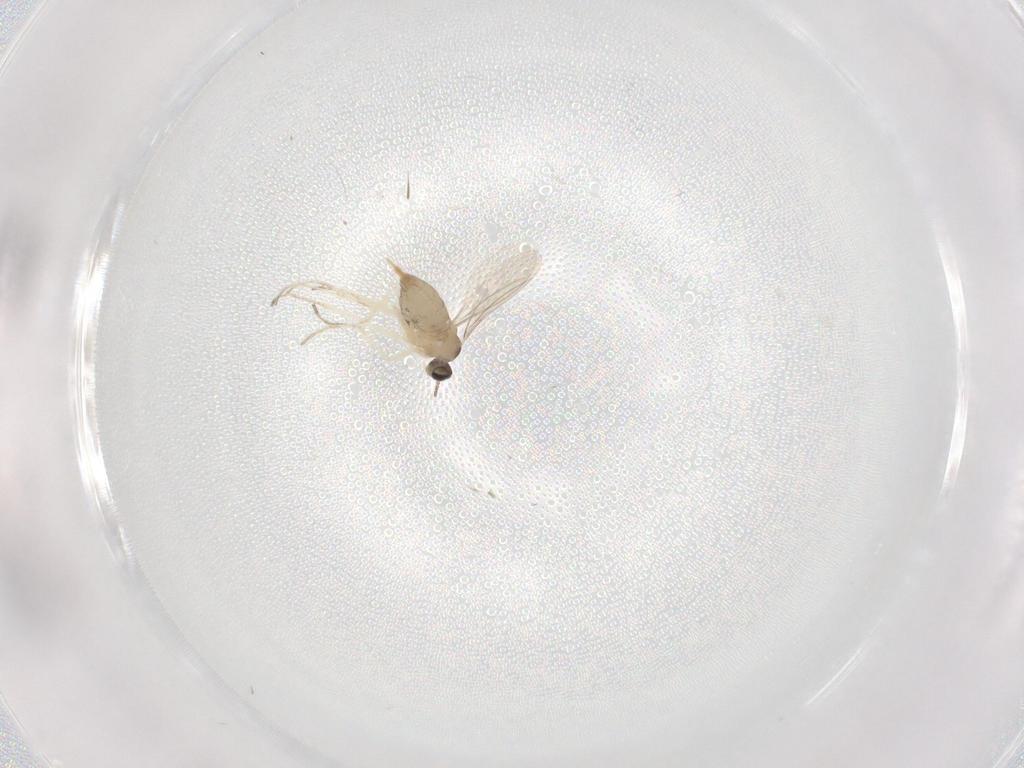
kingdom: Animalia
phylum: Arthropoda
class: Insecta
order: Diptera
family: Cecidomyiidae
